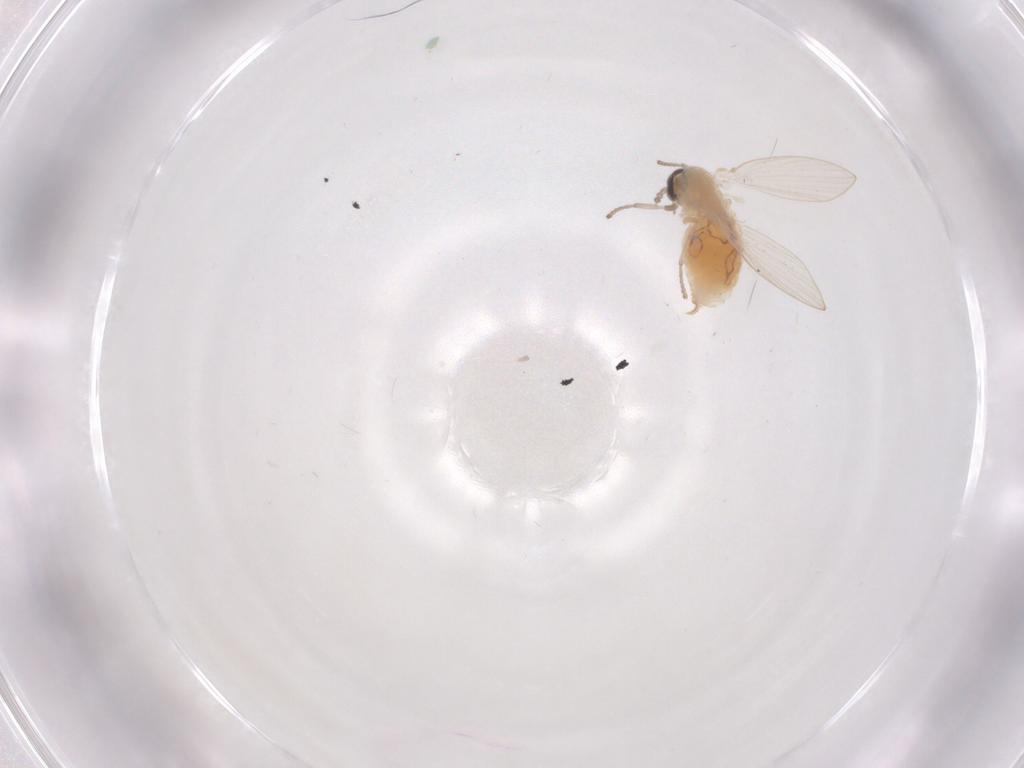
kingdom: Animalia
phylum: Arthropoda
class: Insecta
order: Diptera
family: Psychodidae
